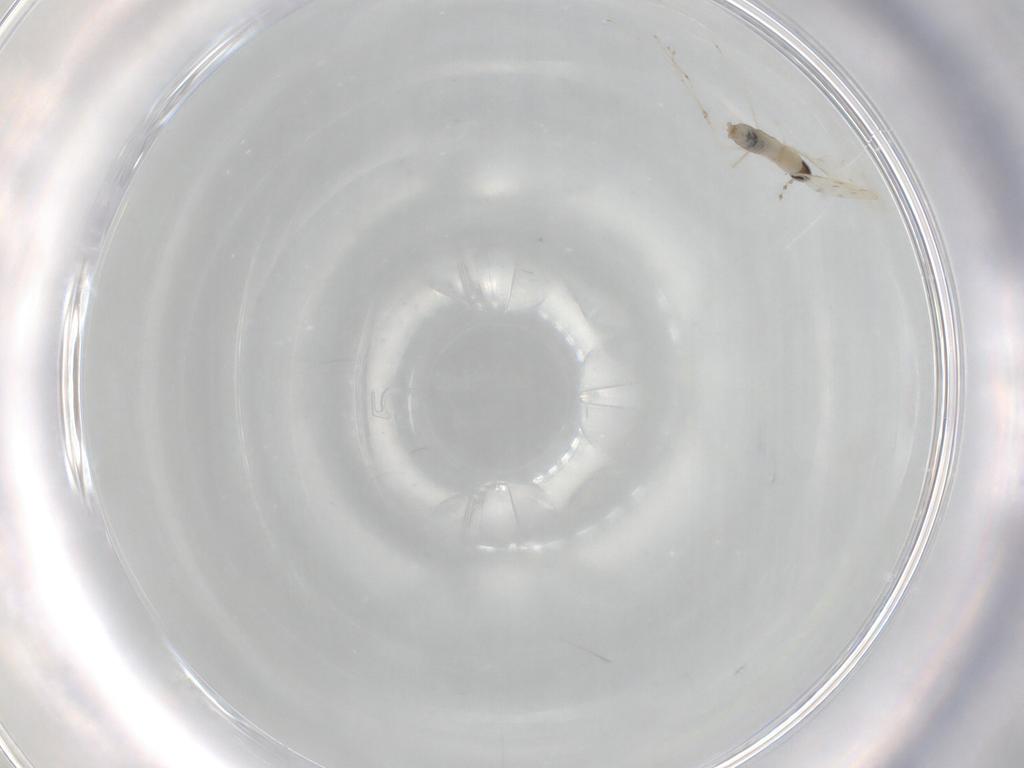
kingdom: Animalia
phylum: Arthropoda
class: Insecta
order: Diptera
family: Cecidomyiidae
